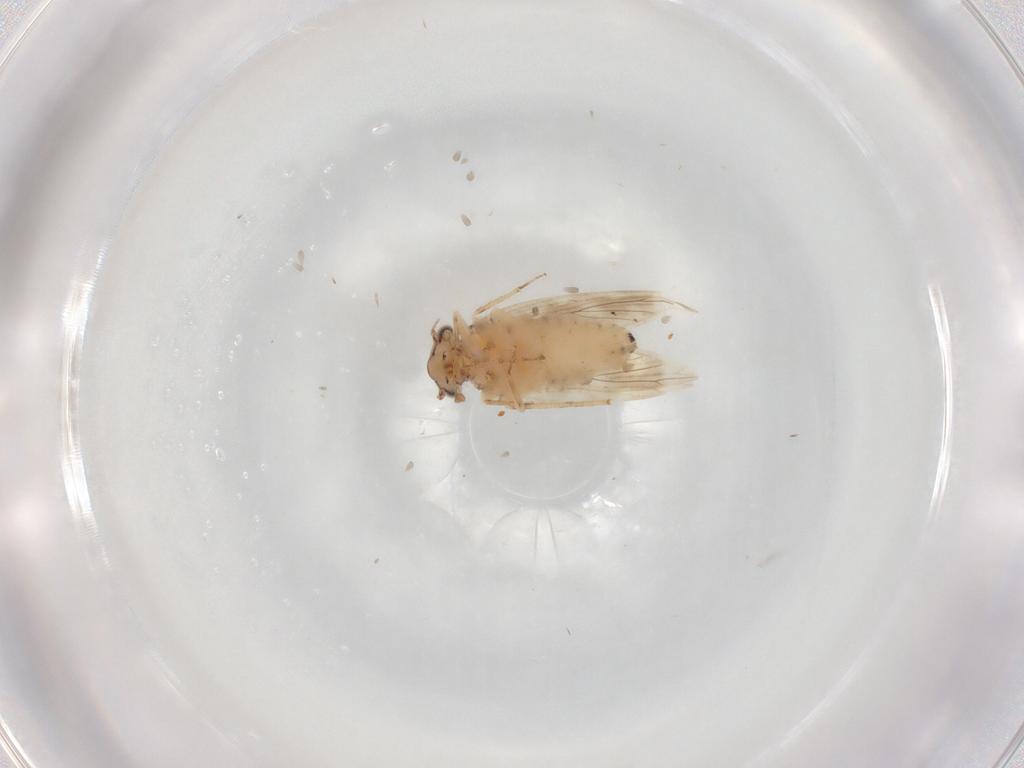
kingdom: Animalia
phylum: Arthropoda
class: Insecta
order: Psocodea
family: Lepidopsocidae
